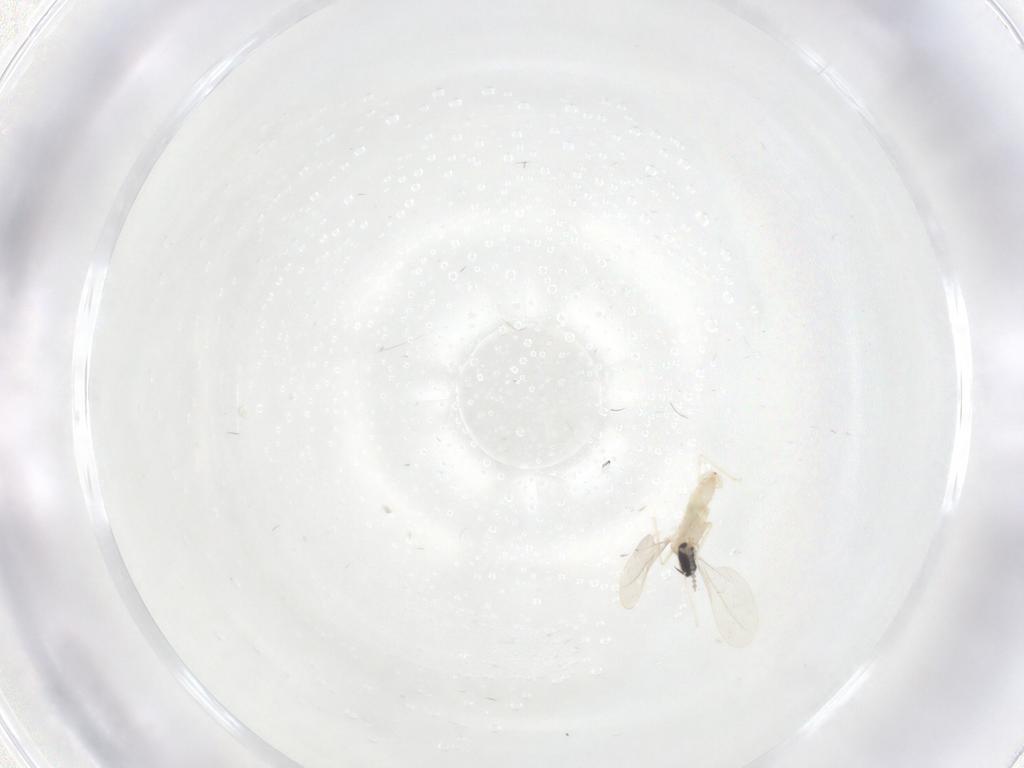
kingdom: Animalia
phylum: Arthropoda
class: Insecta
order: Diptera
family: Cecidomyiidae
